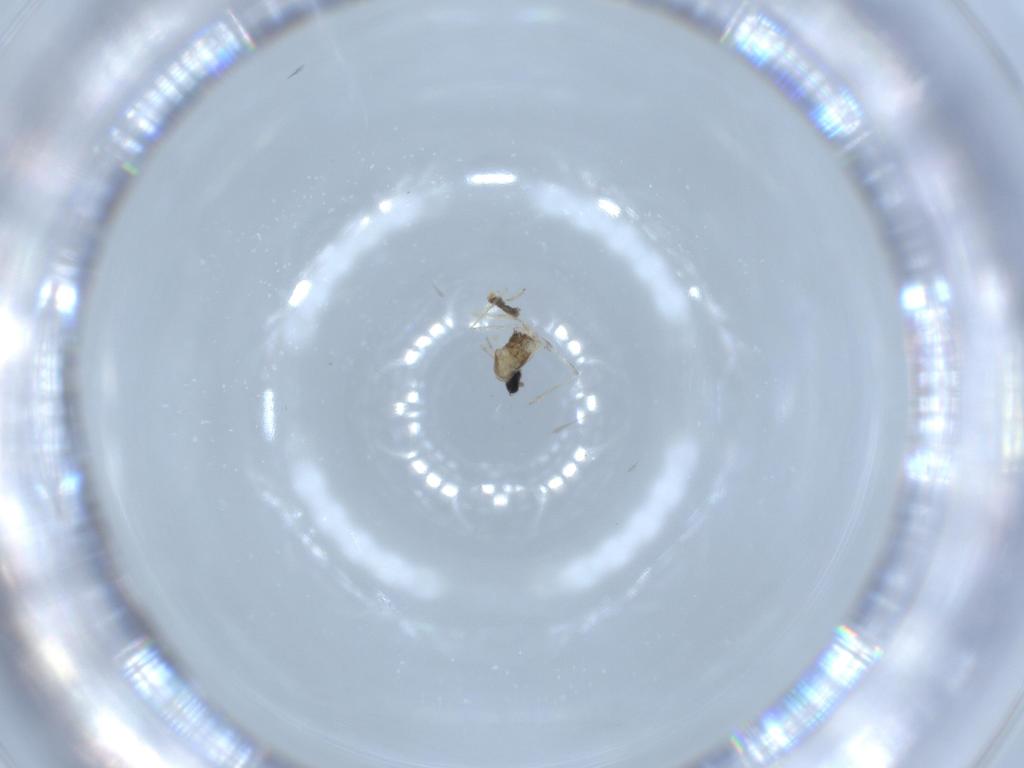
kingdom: Animalia
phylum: Arthropoda
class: Insecta
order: Diptera
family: Cecidomyiidae
